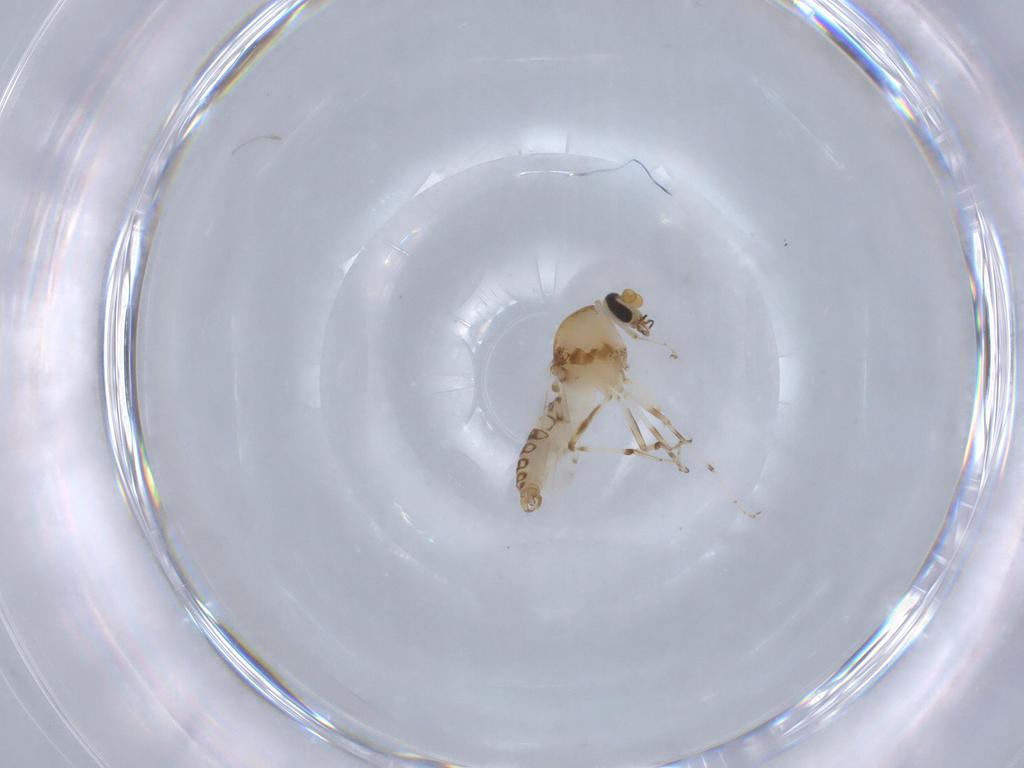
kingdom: Animalia
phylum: Arthropoda
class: Insecta
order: Diptera
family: Ceratopogonidae
